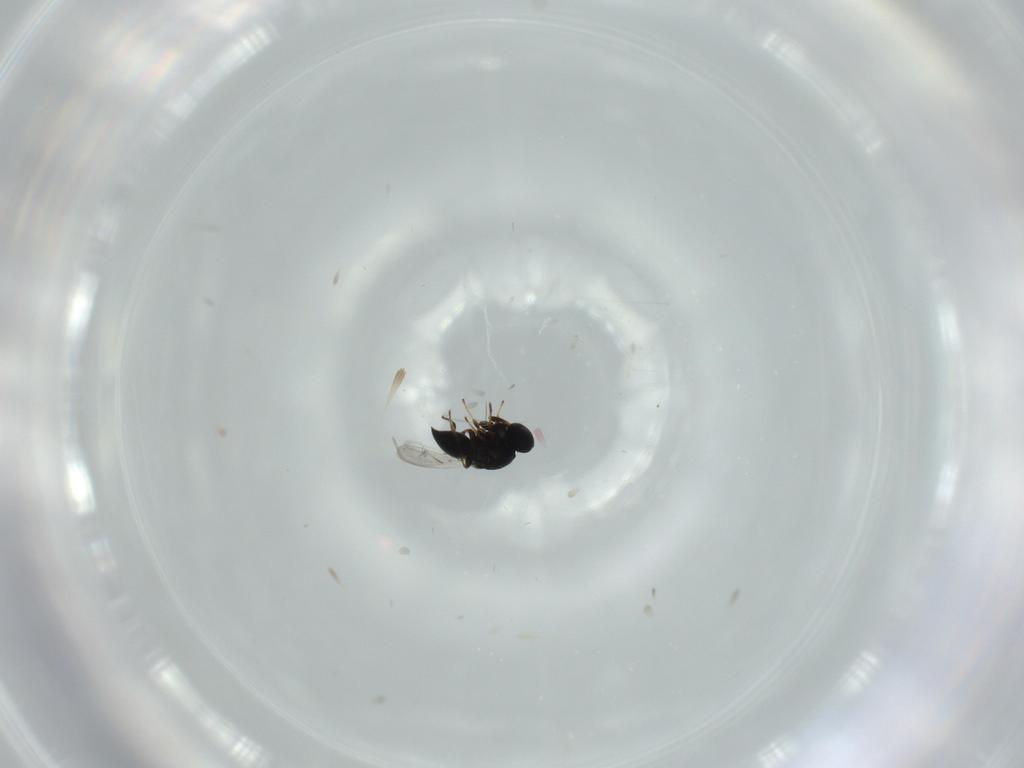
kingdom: Animalia
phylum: Arthropoda
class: Insecta
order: Hymenoptera
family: Platygastridae
